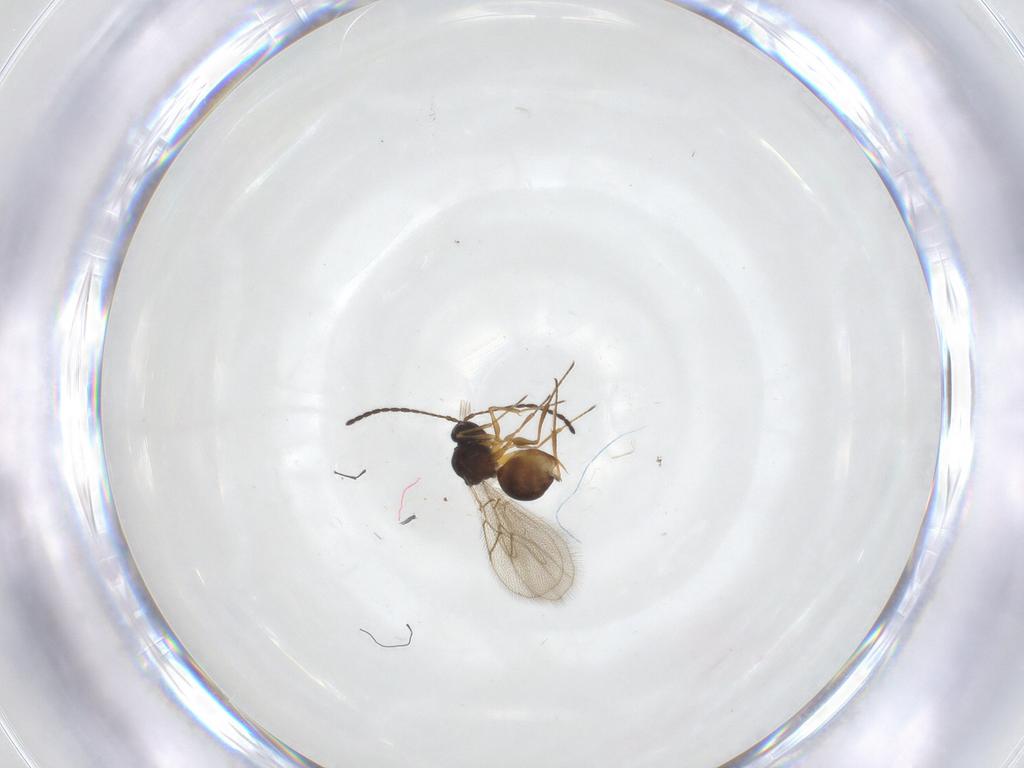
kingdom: Animalia
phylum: Arthropoda
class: Insecta
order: Hymenoptera
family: Figitidae
